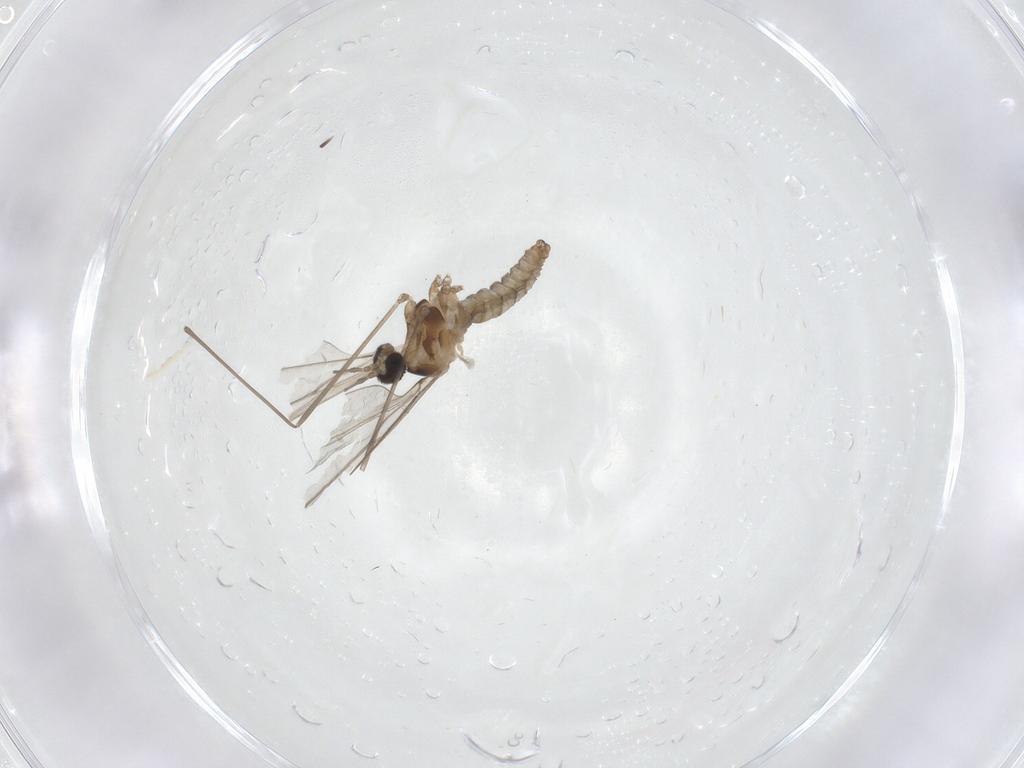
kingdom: Animalia
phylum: Arthropoda
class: Insecta
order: Diptera
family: Cecidomyiidae
